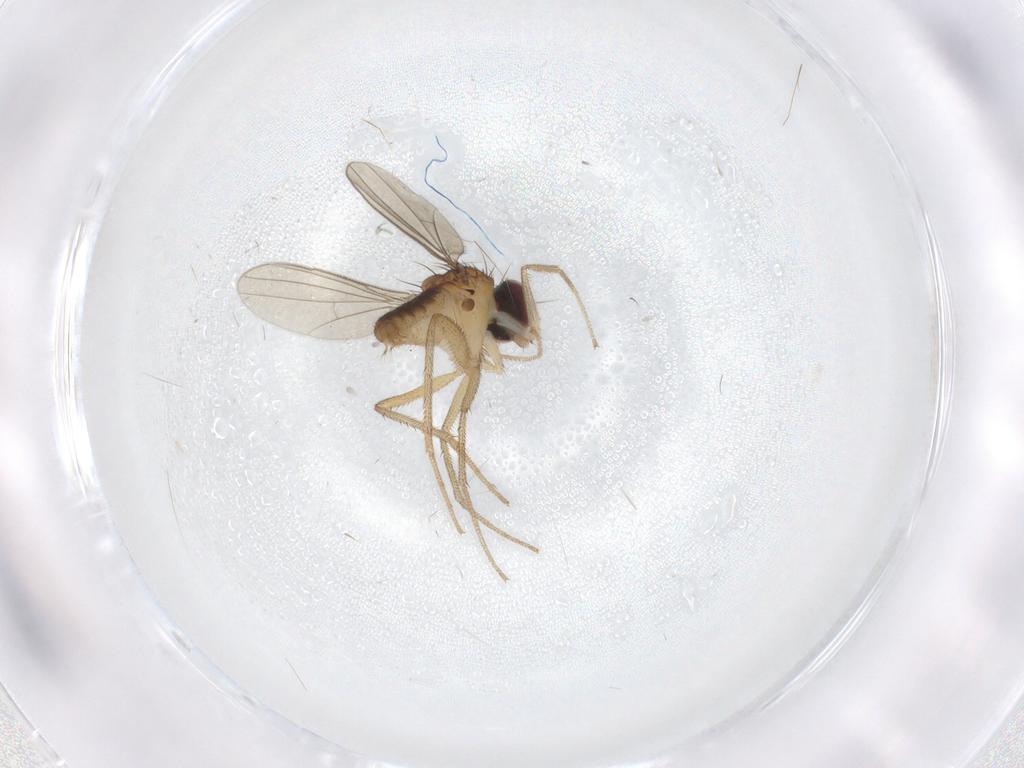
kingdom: Animalia
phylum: Arthropoda
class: Insecta
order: Diptera
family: Dolichopodidae
